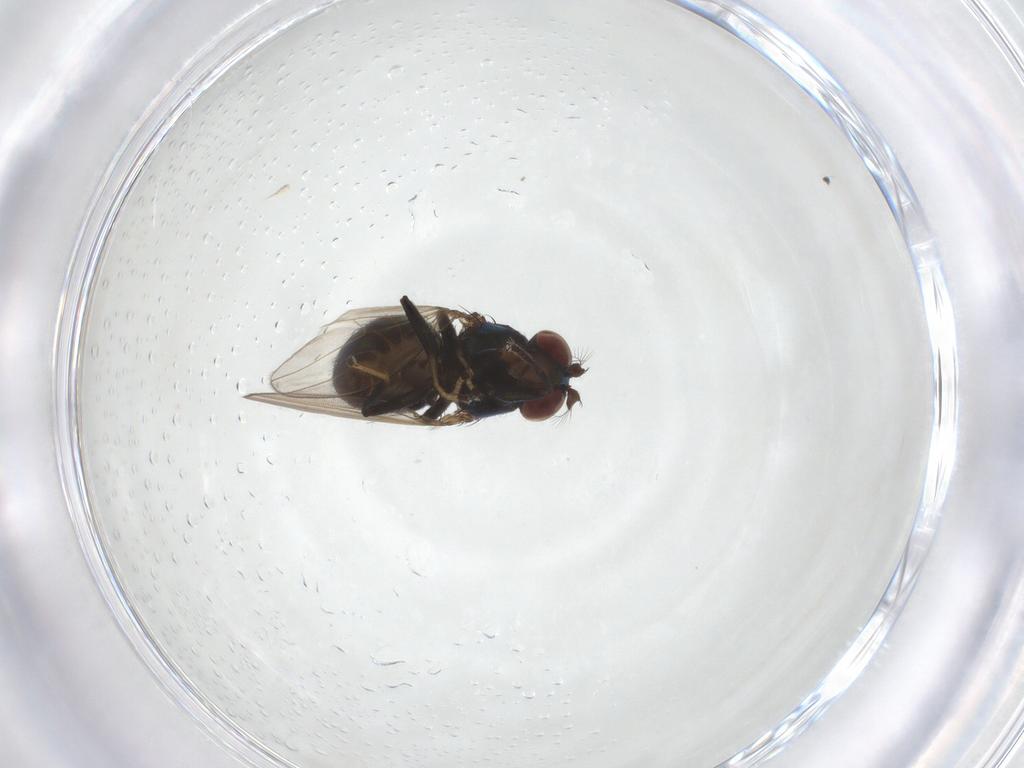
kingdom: Animalia
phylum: Arthropoda
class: Insecta
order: Diptera
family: Ephydridae
